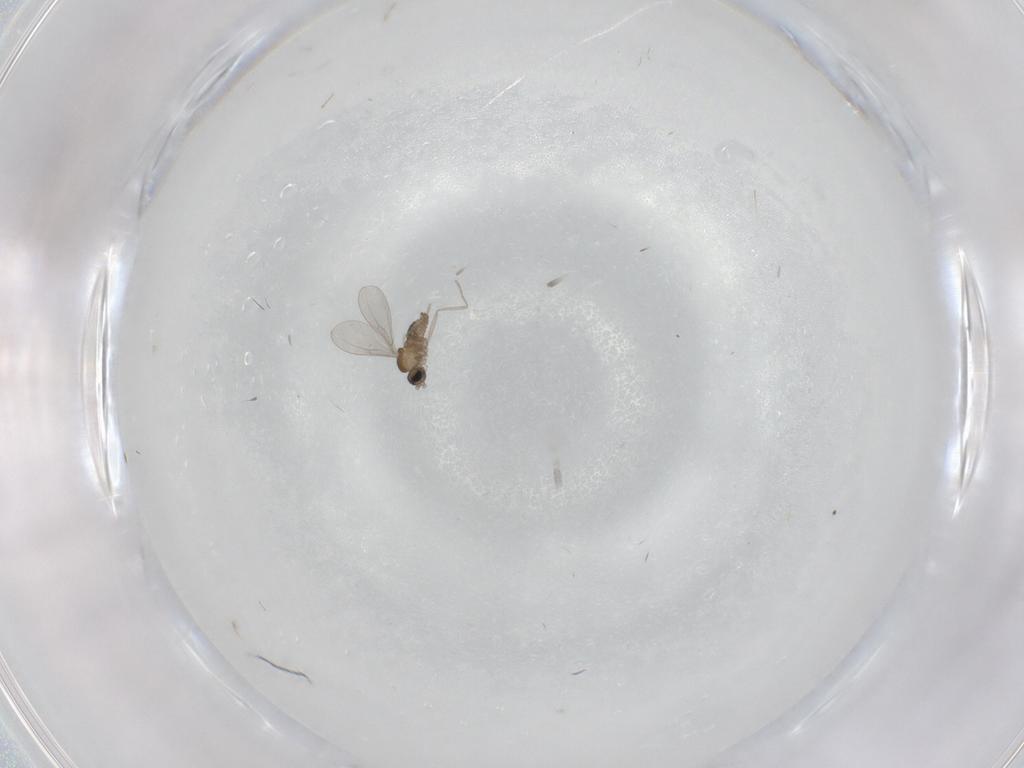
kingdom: Animalia
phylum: Arthropoda
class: Insecta
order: Diptera
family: Cecidomyiidae
